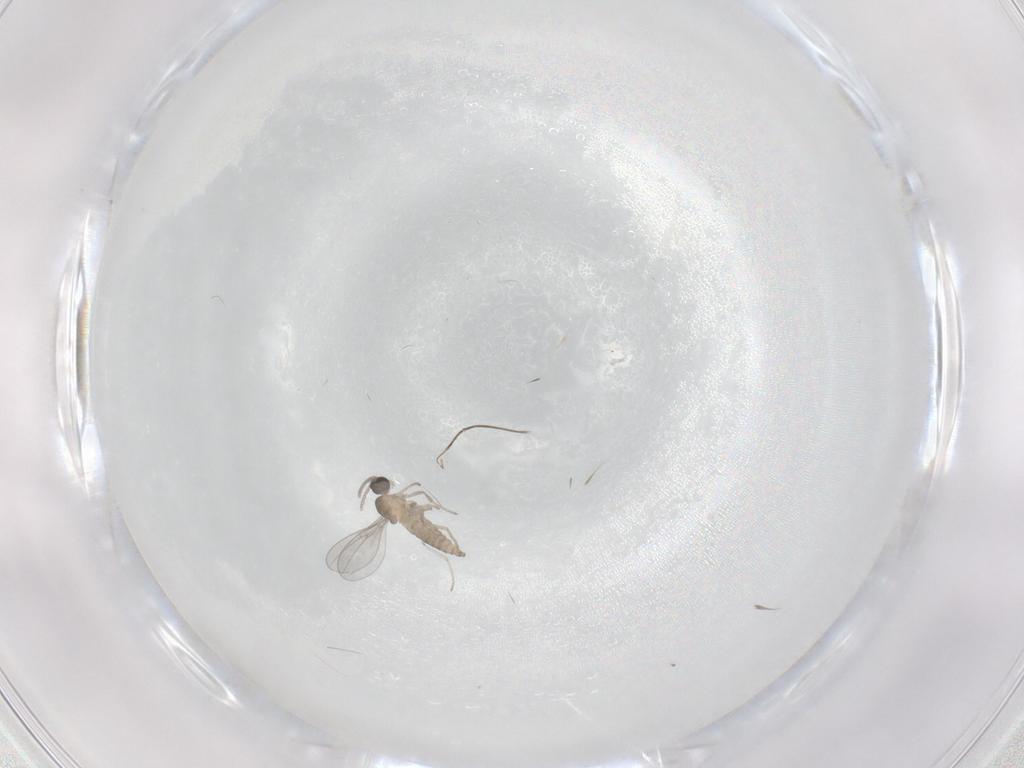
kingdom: Animalia
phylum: Arthropoda
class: Insecta
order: Diptera
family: Cecidomyiidae
